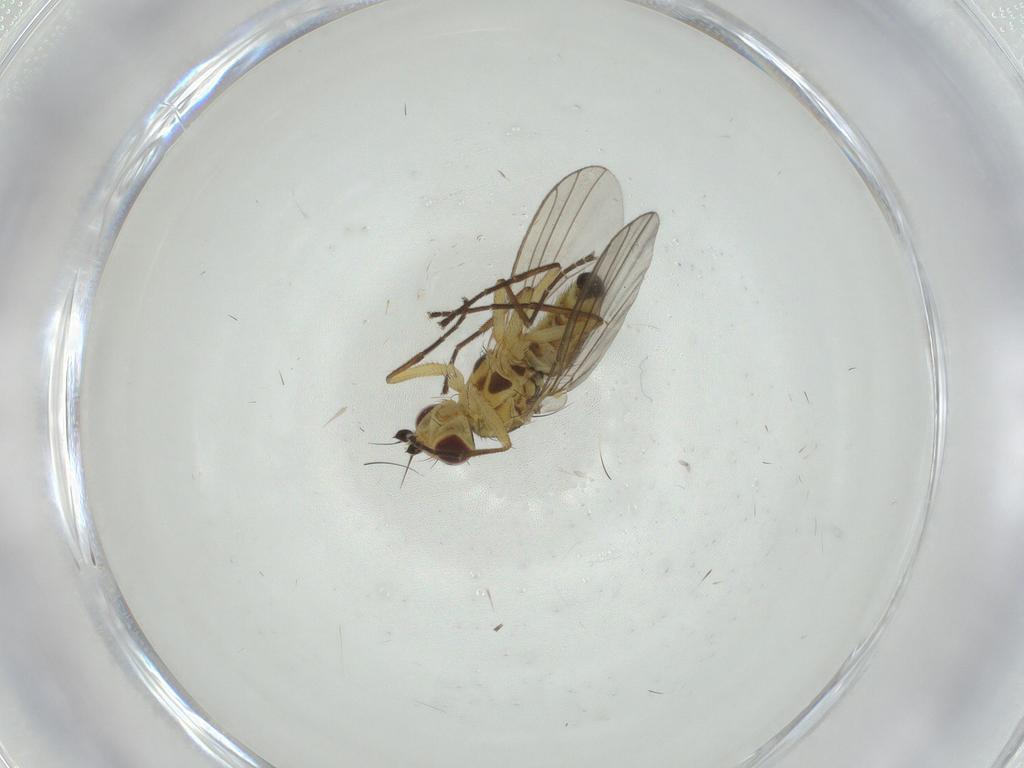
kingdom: Animalia
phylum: Arthropoda
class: Insecta
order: Diptera
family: Agromyzidae
